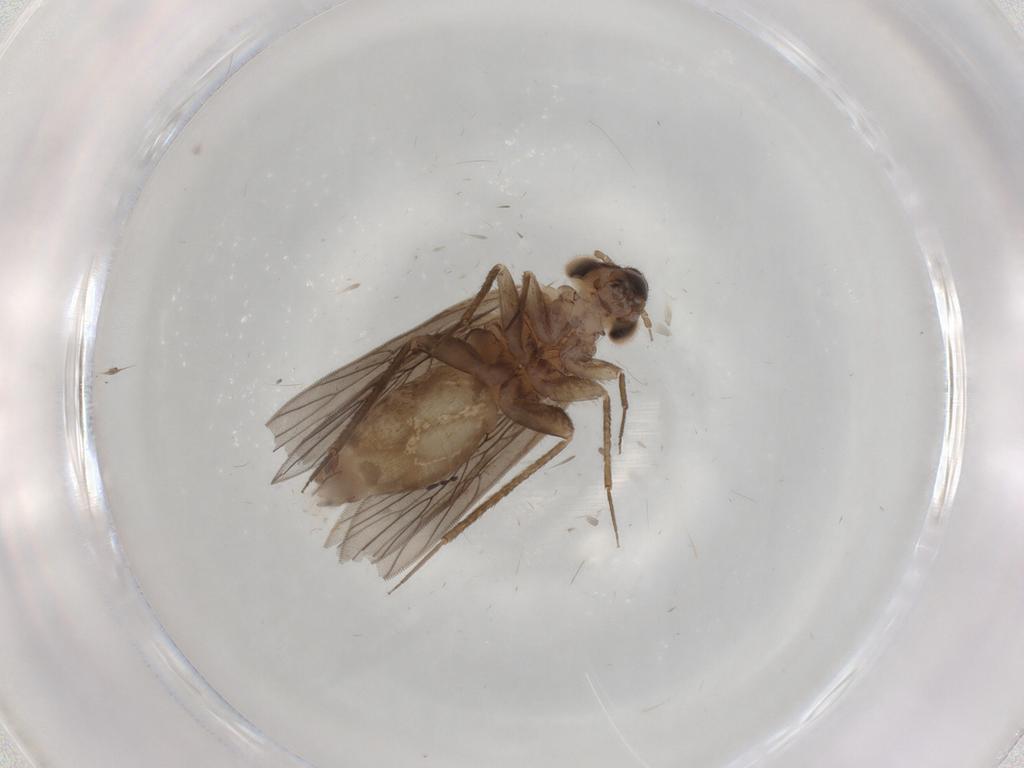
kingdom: Animalia
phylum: Arthropoda
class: Insecta
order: Psocodea
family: Lepidopsocidae
